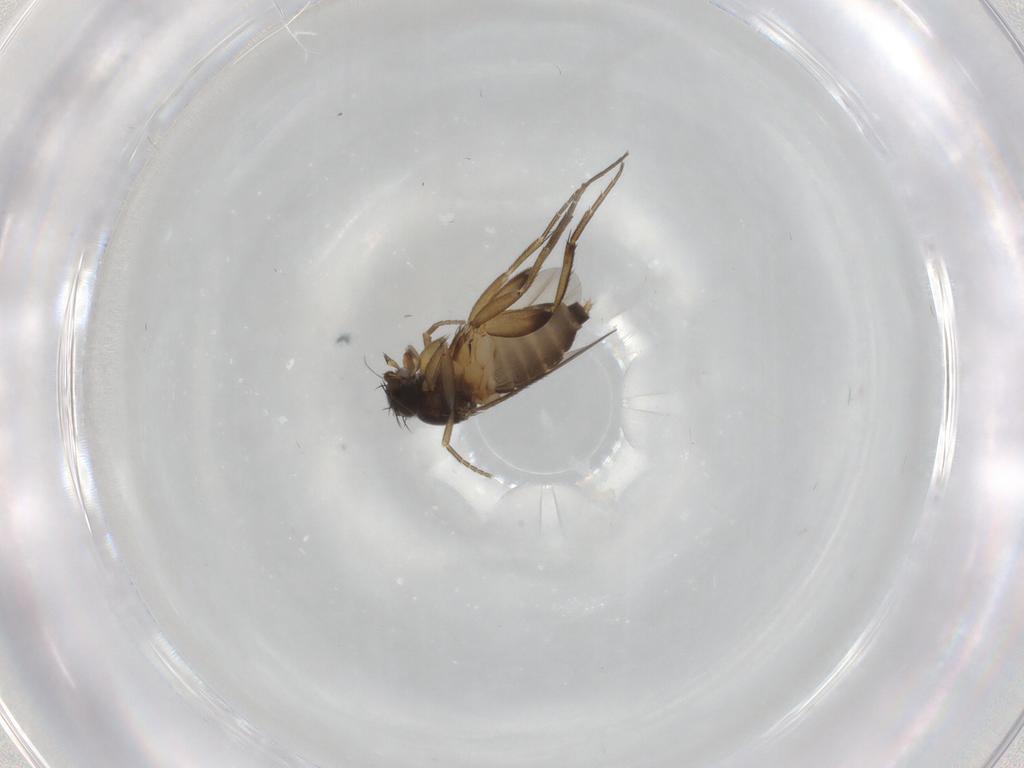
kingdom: Animalia
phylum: Arthropoda
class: Insecta
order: Diptera
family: Phoridae
